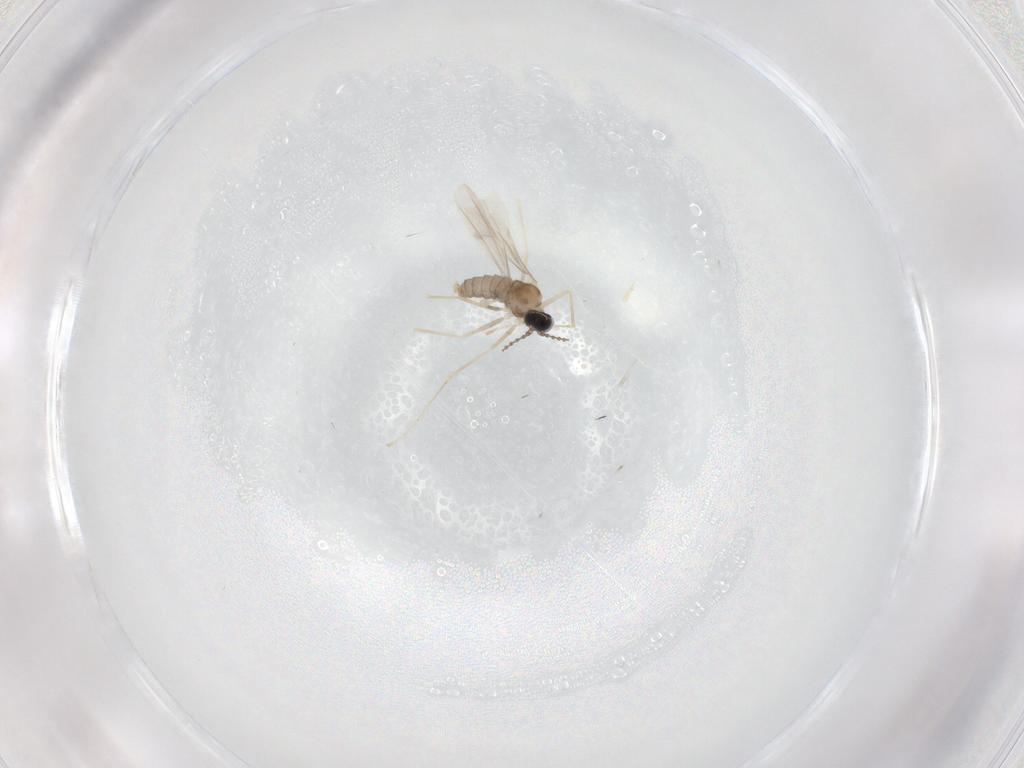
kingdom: Animalia
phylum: Arthropoda
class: Insecta
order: Diptera
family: Cecidomyiidae
